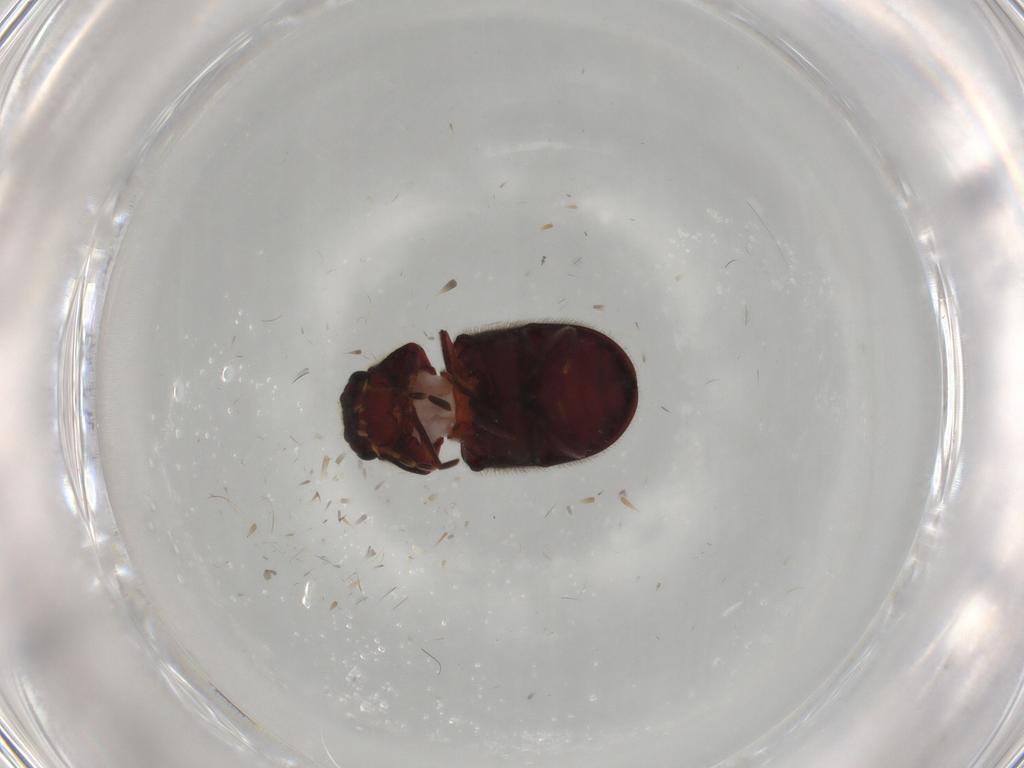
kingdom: Animalia
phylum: Arthropoda
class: Insecta
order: Coleoptera
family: Ptinidae
